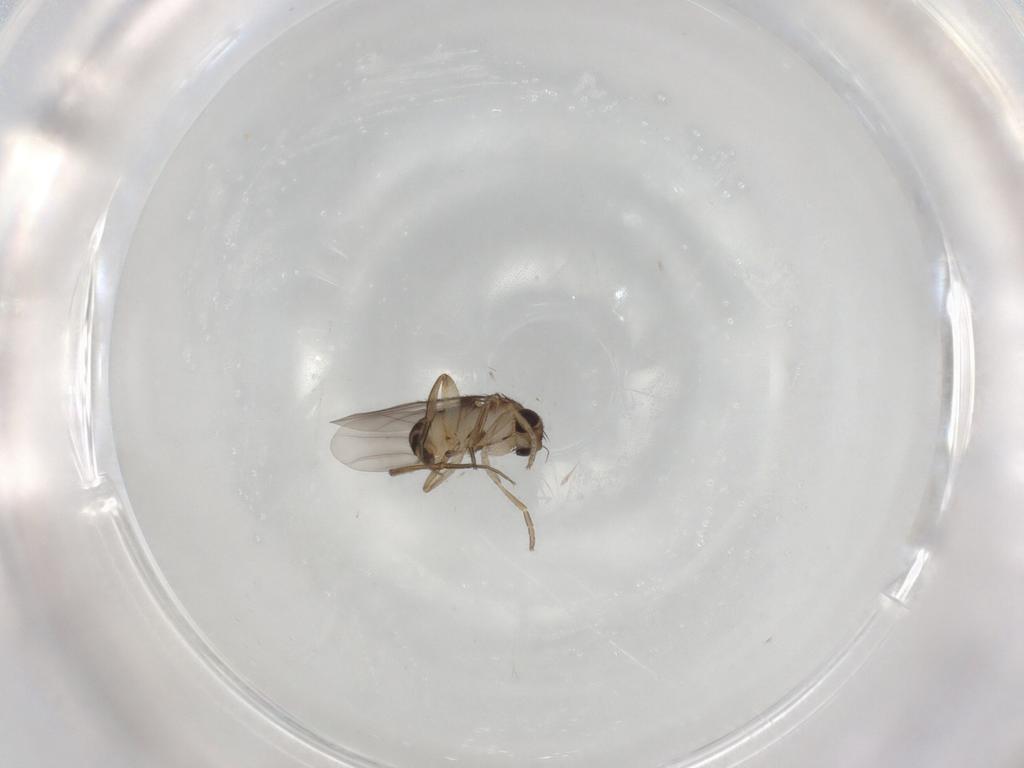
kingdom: Animalia
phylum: Arthropoda
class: Insecta
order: Diptera
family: Phoridae
